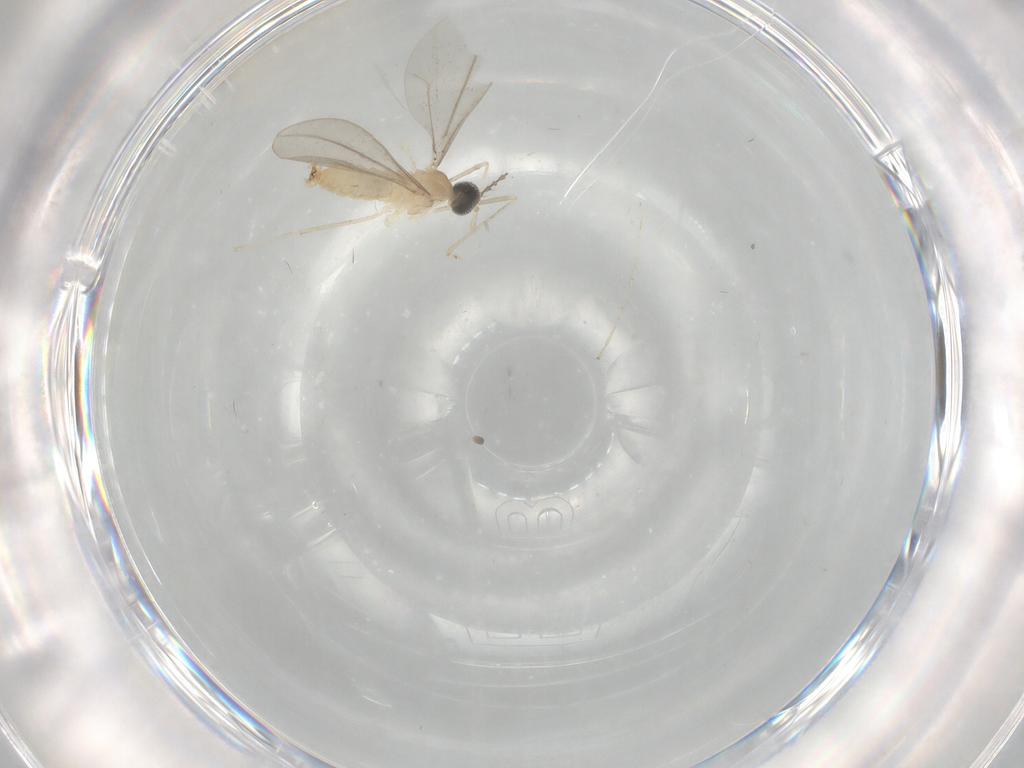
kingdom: Animalia
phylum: Arthropoda
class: Insecta
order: Diptera
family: Cecidomyiidae
